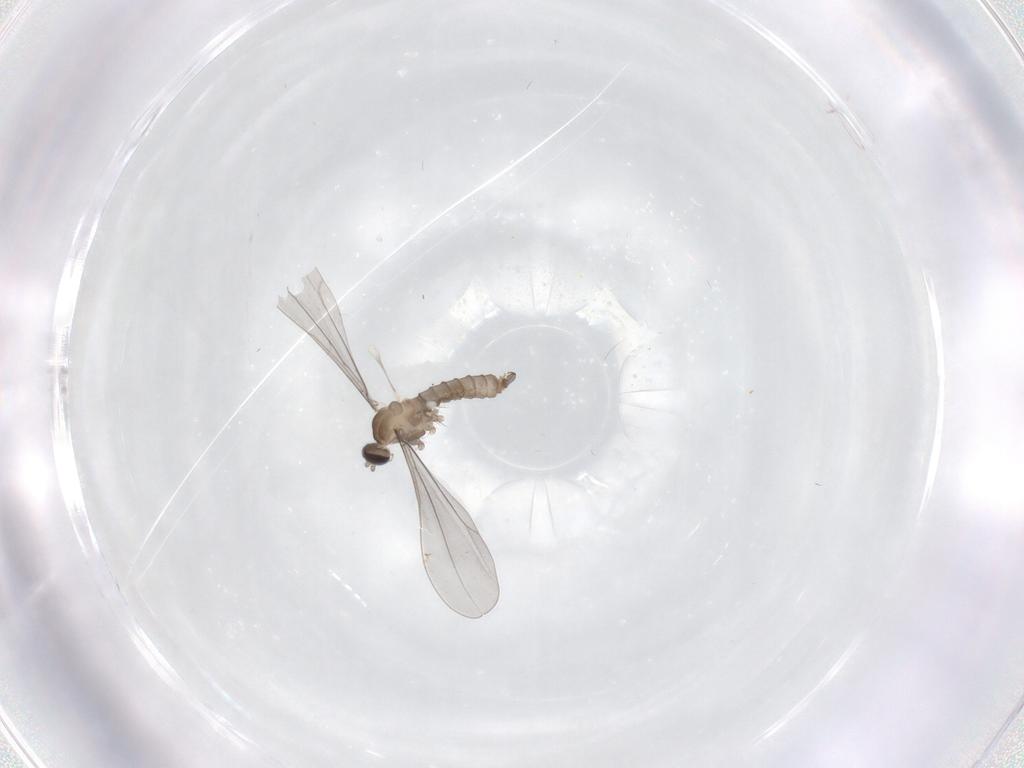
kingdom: Animalia
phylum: Arthropoda
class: Insecta
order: Diptera
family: Cecidomyiidae
